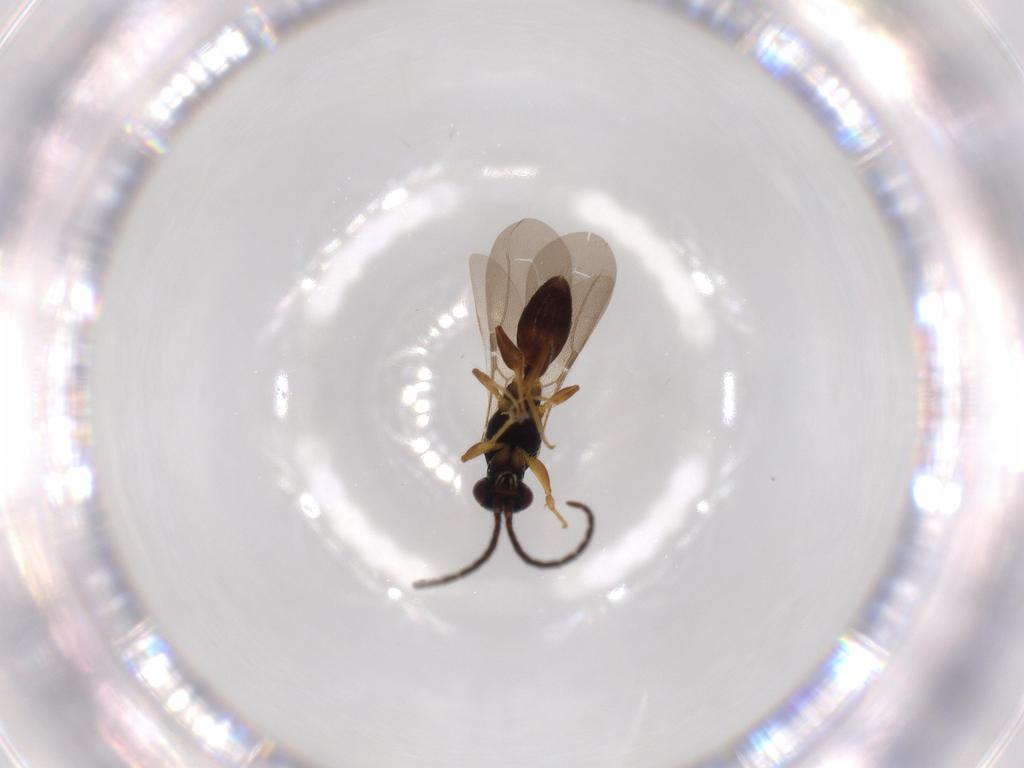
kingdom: Animalia
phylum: Arthropoda
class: Insecta
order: Hymenoptera
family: Bethylidae
